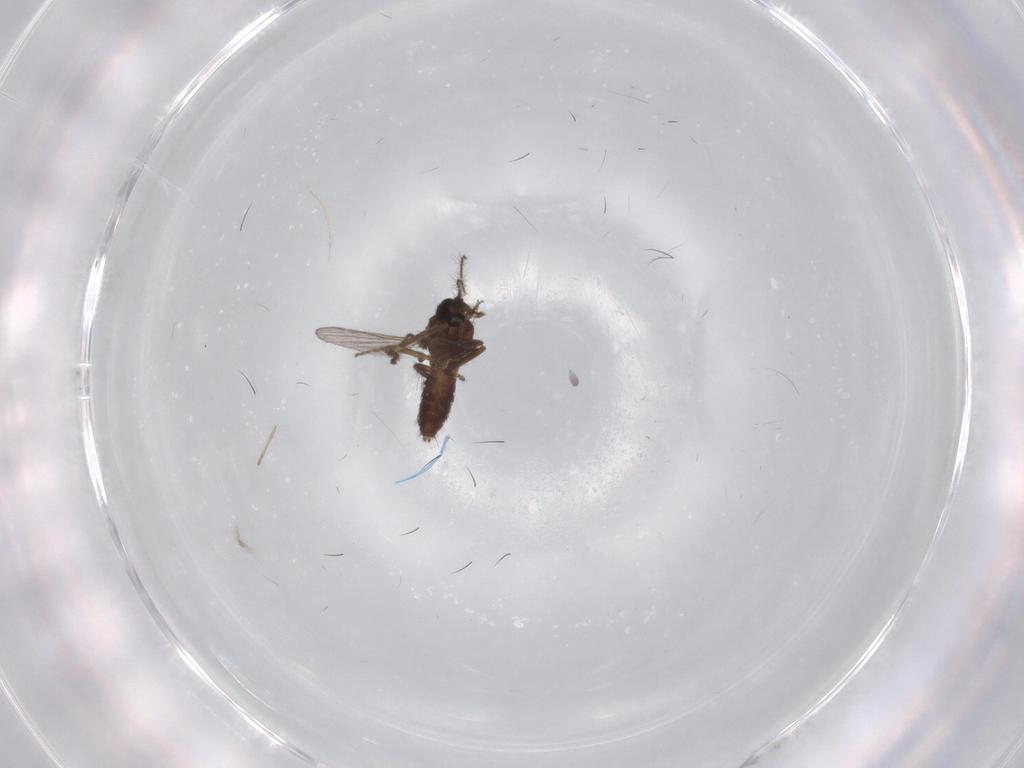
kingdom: Animalia
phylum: Arthropoda
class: Insecta
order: Diptera
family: Ceratopogonidae
